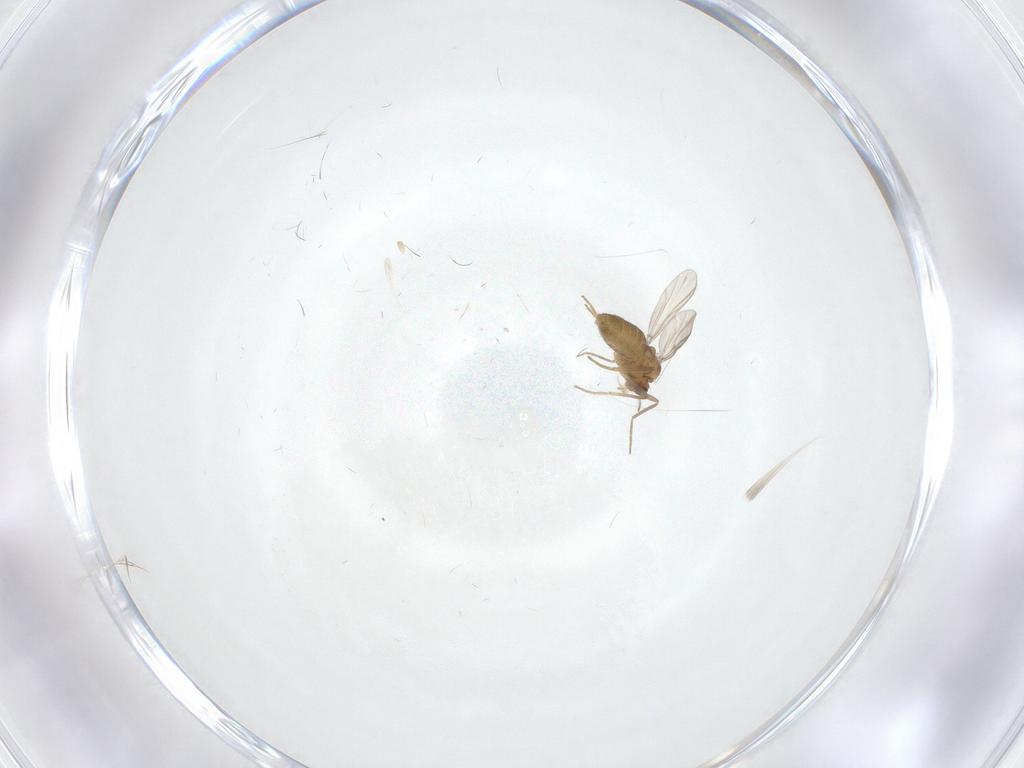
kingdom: Animalia
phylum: Arthropoda
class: Insecta
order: Diptera
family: Chironomidae
